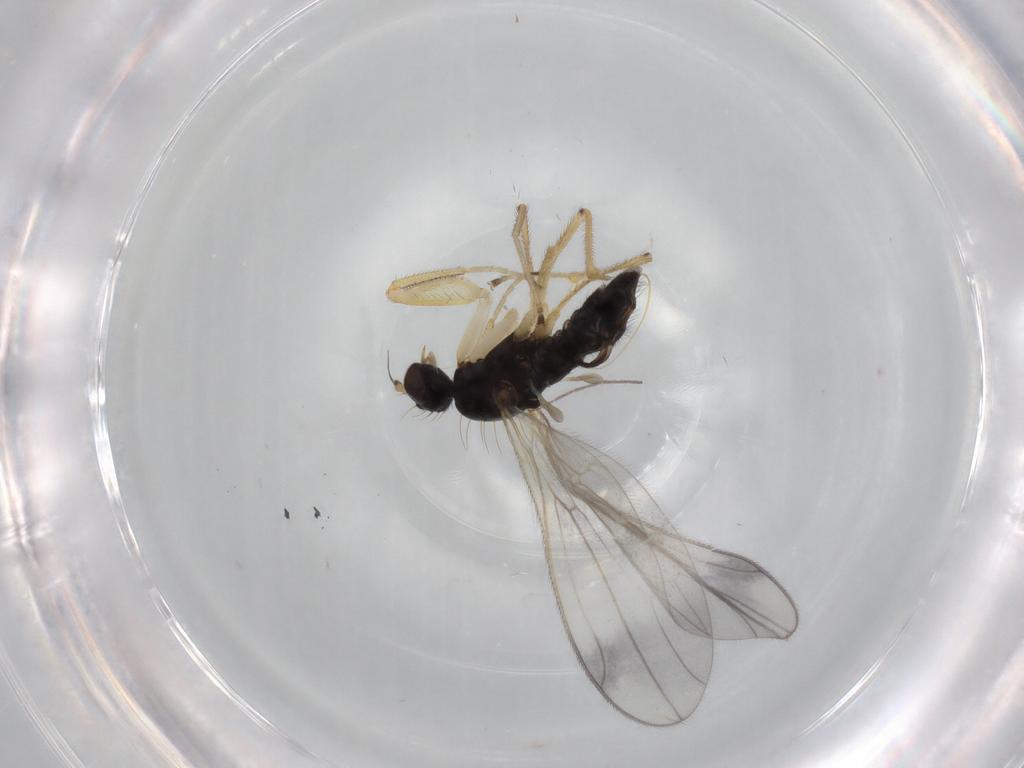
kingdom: Animalia
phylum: Arthropoda
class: Insecta
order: Diptera
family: Empididae
